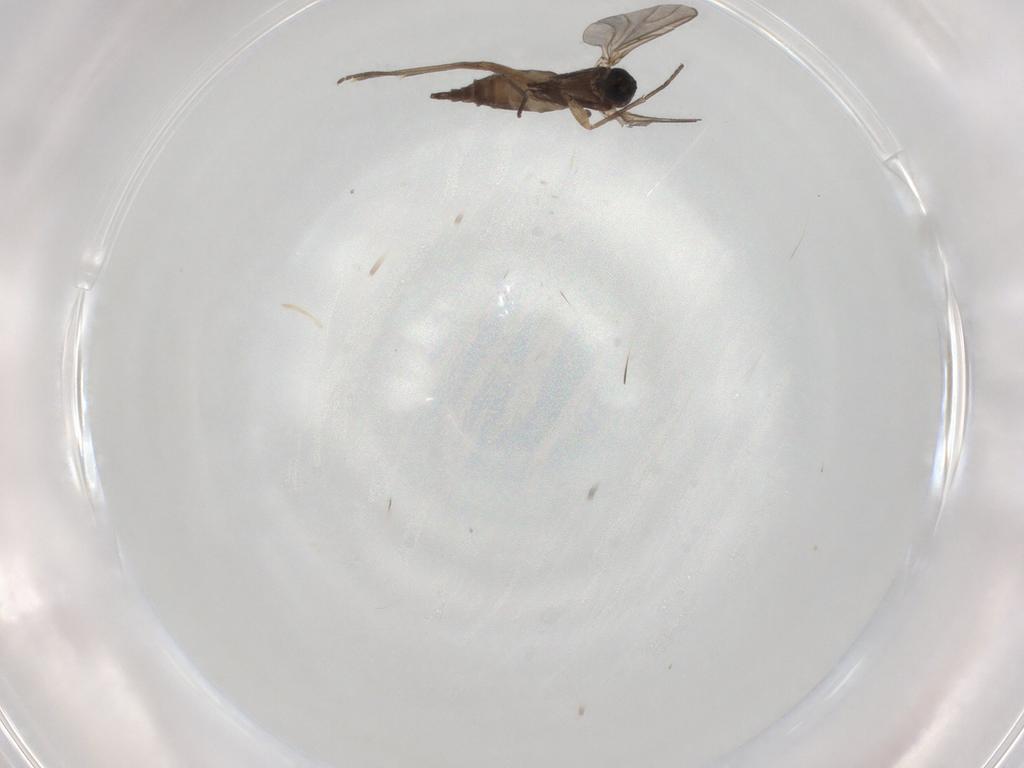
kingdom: Animalia
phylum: Arthropoda
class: Insecta
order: Diptera
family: Sciaridae
